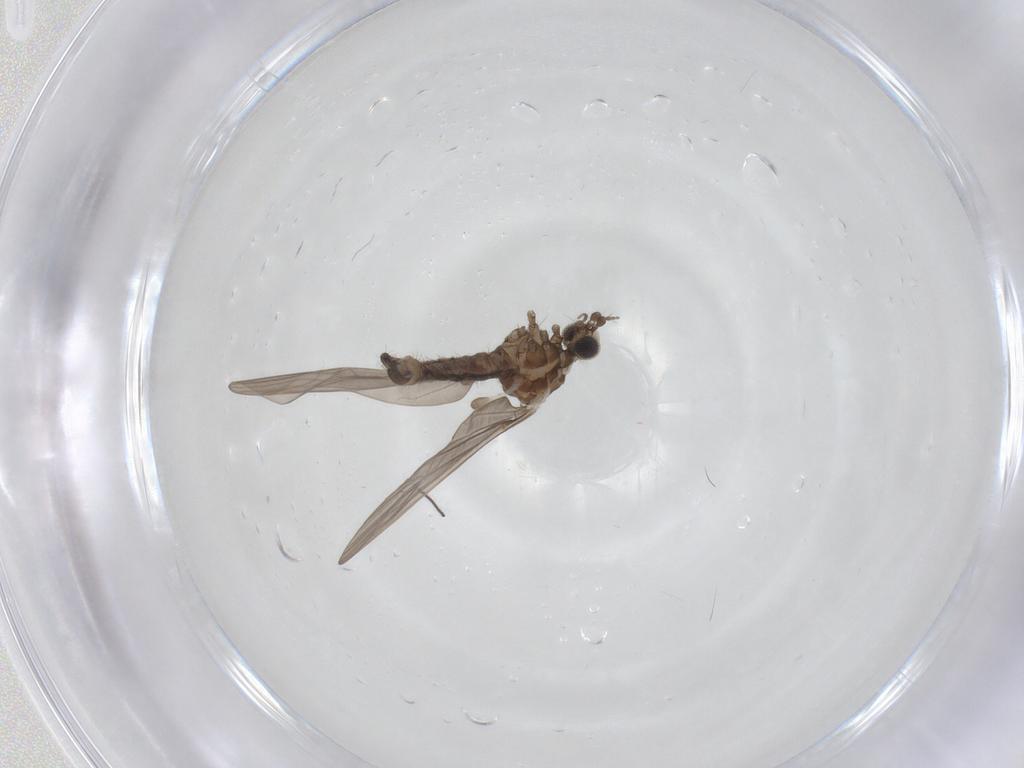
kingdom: Animalia
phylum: Arthropoda
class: Insecta
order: Diptera
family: Limoniidae
